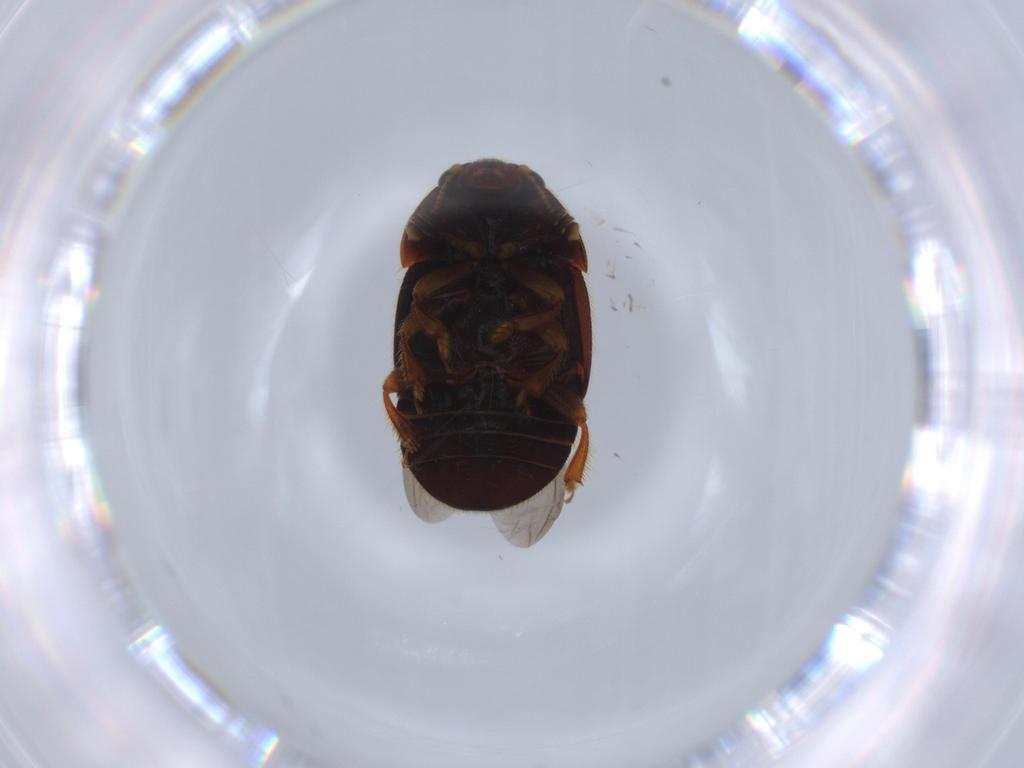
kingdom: Animalia
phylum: Arthropoda
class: Insecta
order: Coleoptera
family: Nitidulidae
